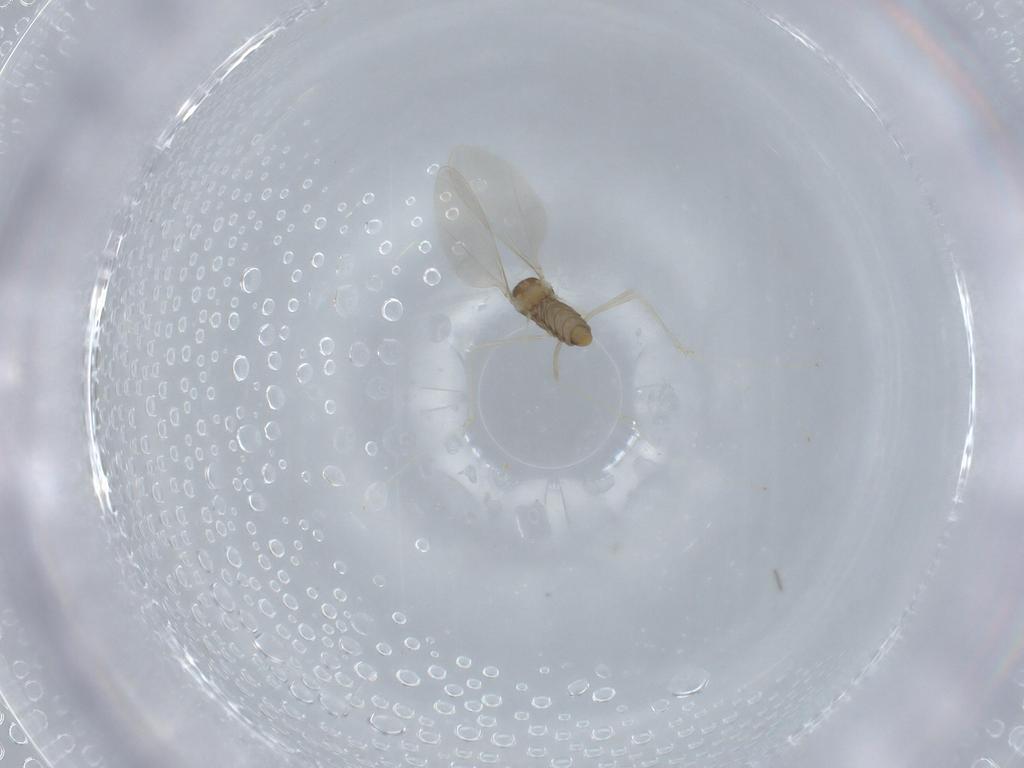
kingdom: Animalia
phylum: Arthropoda
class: Insecta
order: Diptera
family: Cecidomyiidae
